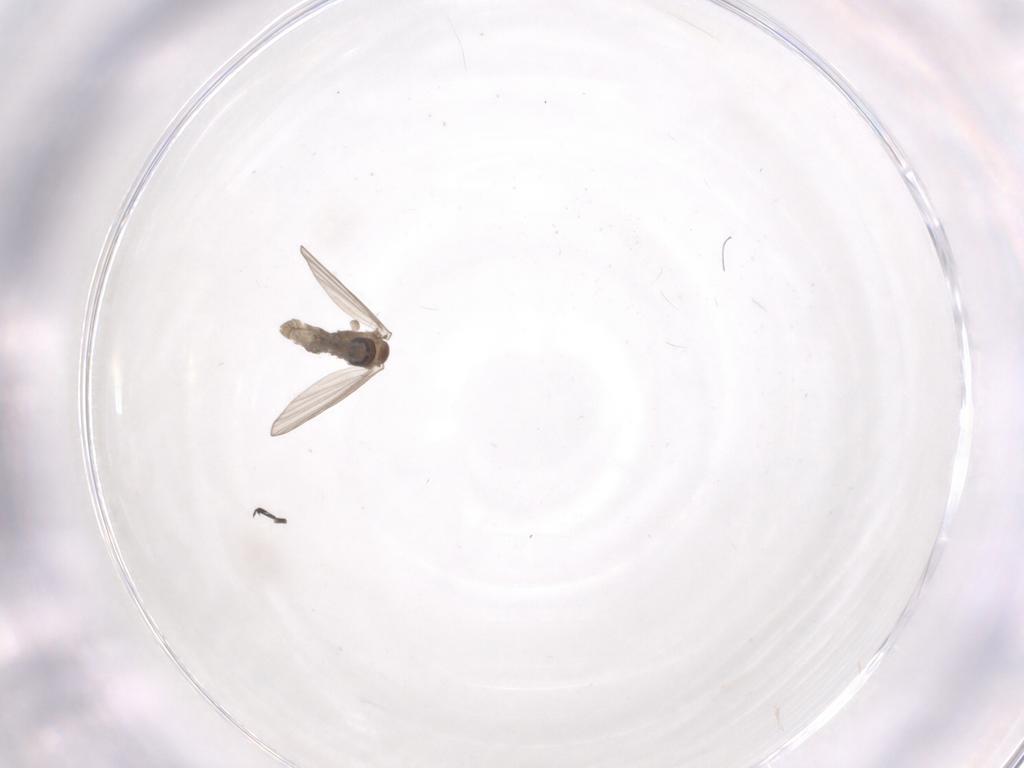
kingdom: Animalia
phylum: Arthropoda
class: Insecta
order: Diptera
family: Psychodidae
